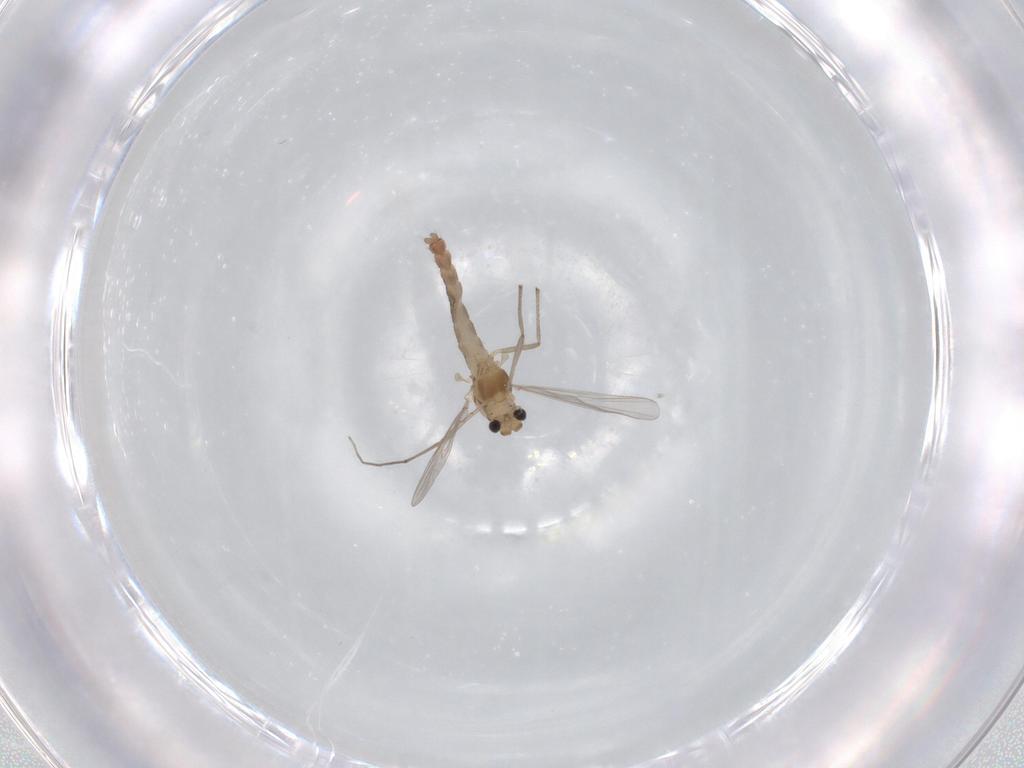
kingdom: Animalia
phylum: Arthropoda
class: Insecta
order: Diptera
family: Chironomidae
